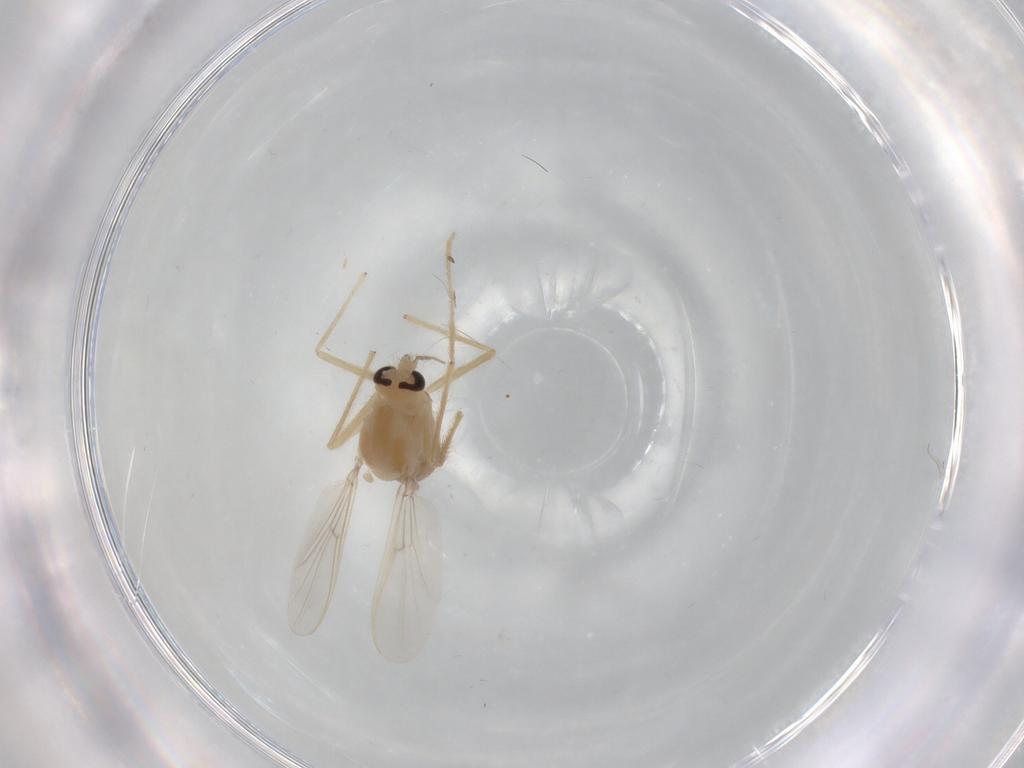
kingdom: Animalia
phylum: Arthropoda
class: Insecta
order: Diptera
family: Chironomidae
